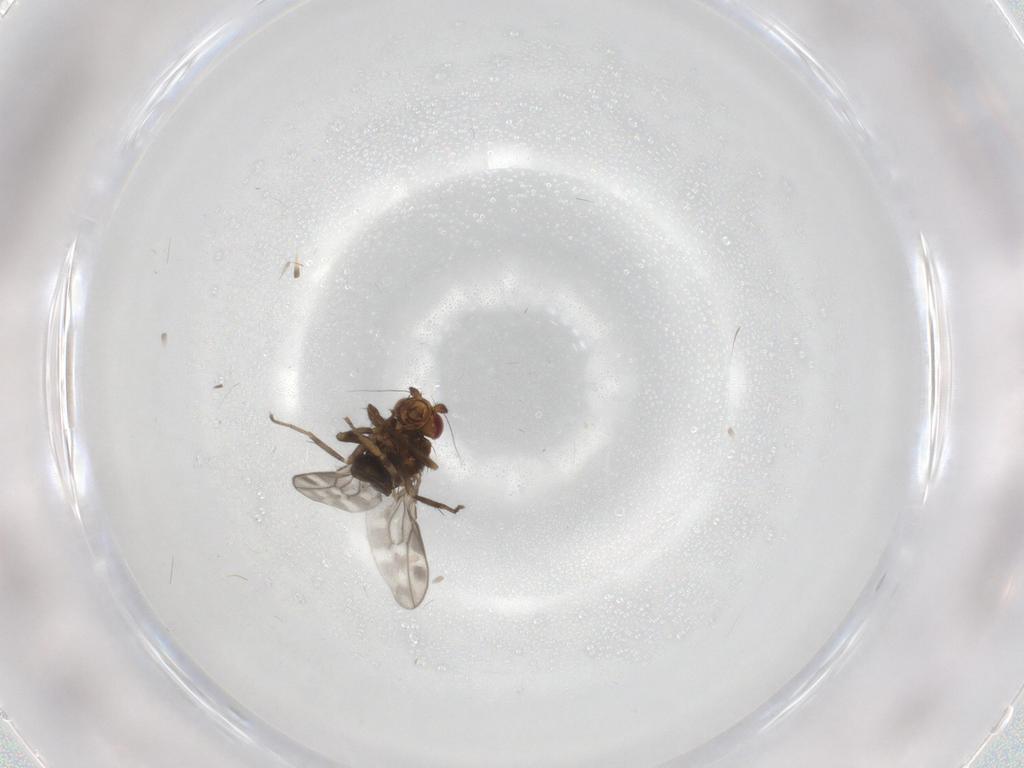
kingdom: Animalia
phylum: Arthropoda
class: Insecta
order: Diptera
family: Sphaeroceridae
